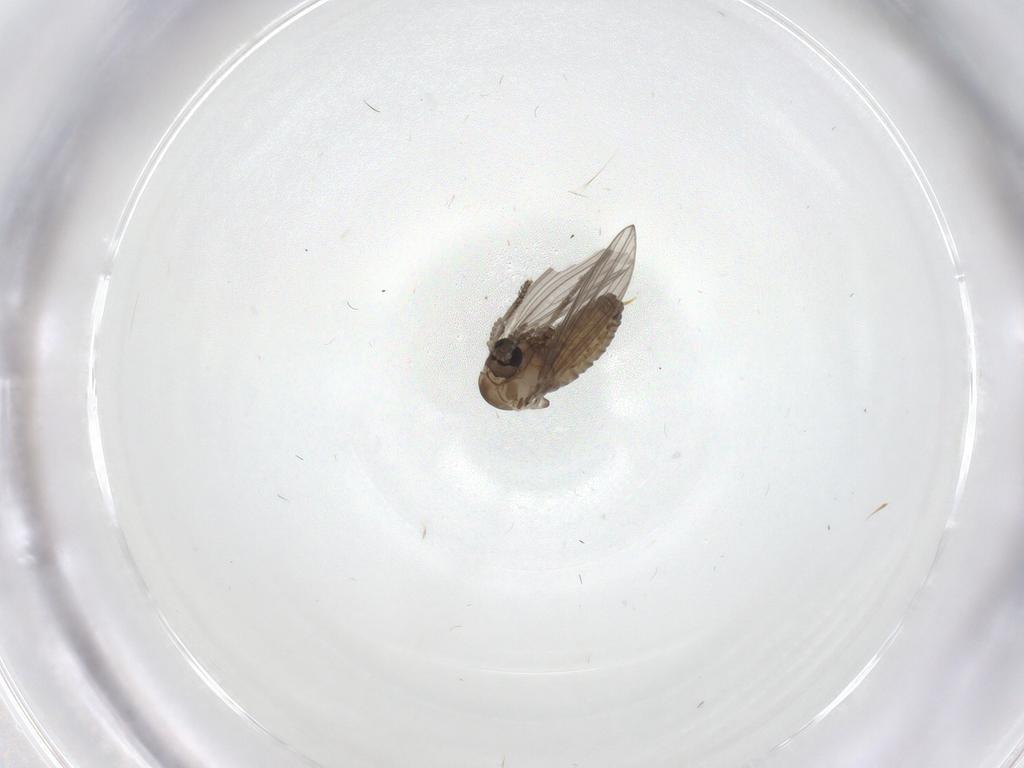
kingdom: Animalia
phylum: Arthropoda
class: Insecta
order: Diptera
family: Psychodidae
